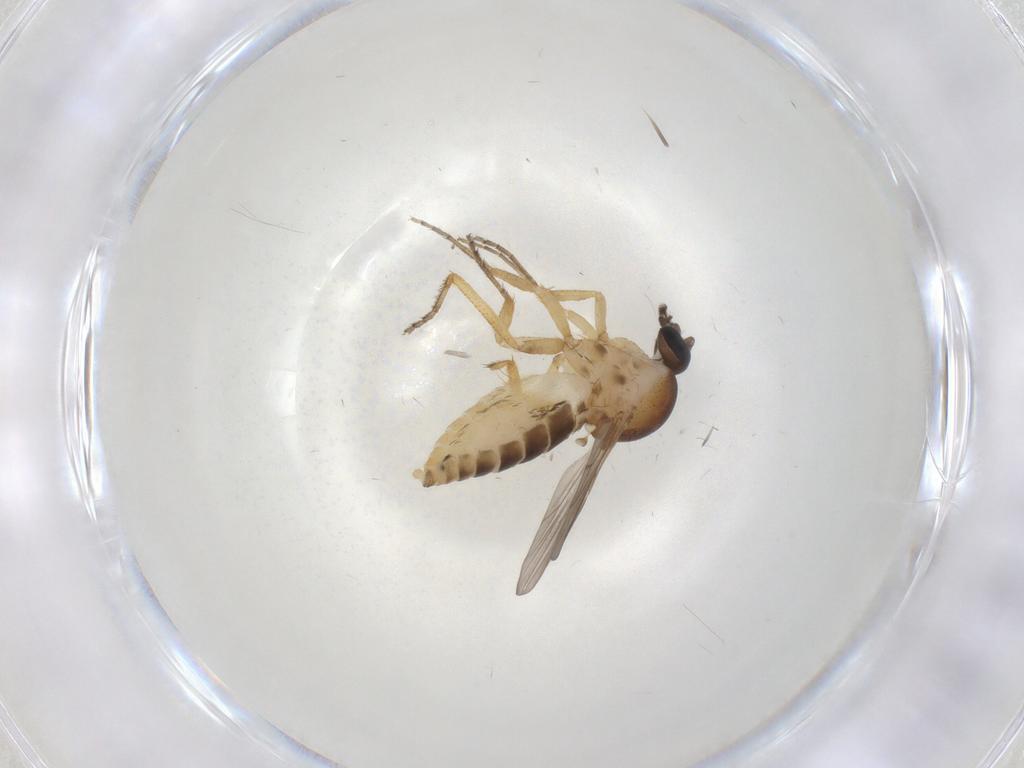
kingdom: Animalia
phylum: Arthropoda
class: Insecta
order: Diptera
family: Ceratopogonidae
